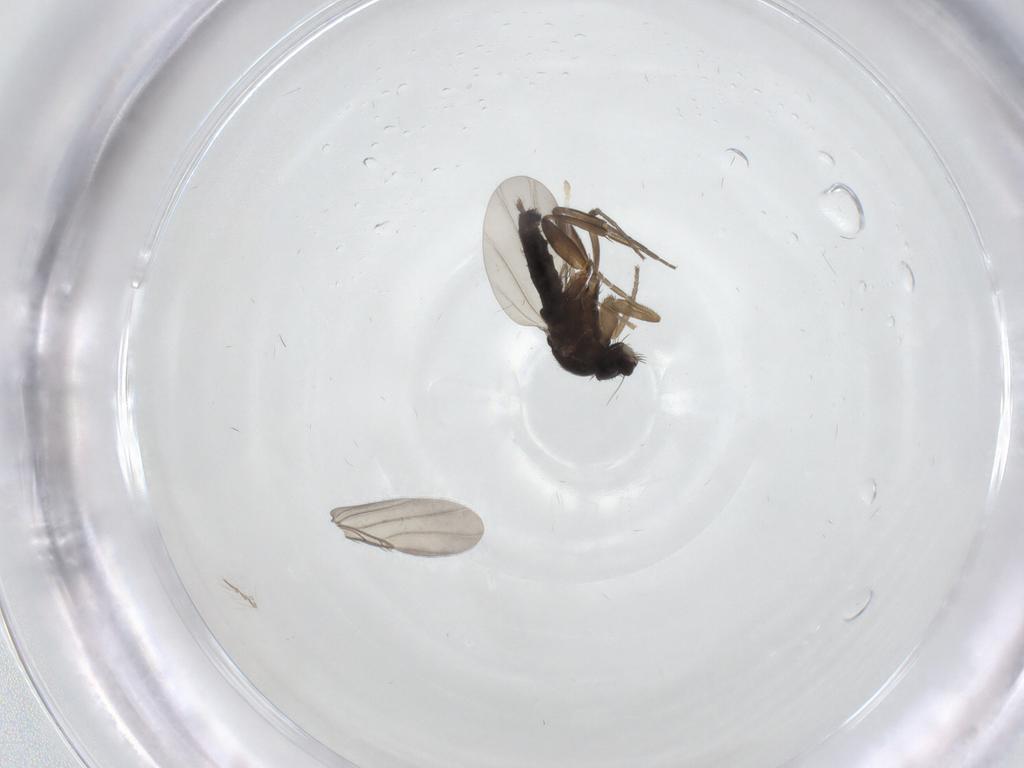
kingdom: Animalia
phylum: Arthropoda
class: Insecta
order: Diptera
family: Phoridae
